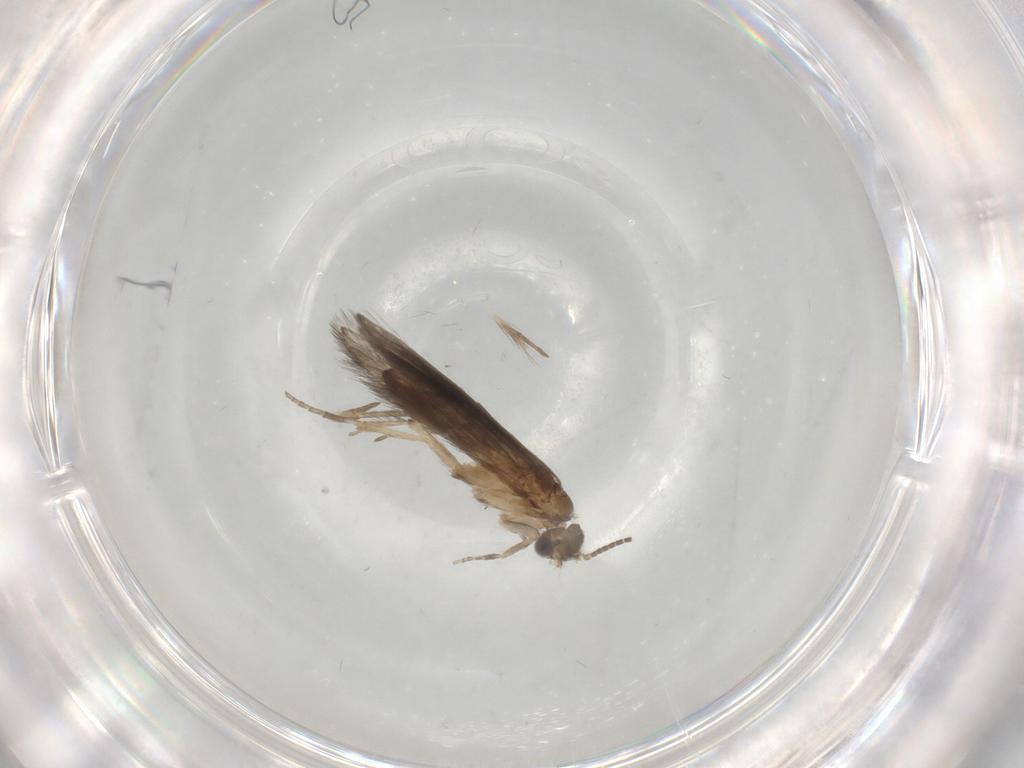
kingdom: Animalia
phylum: Arthropoda
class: Insecta
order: Trichoptera
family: Hydroptilidae
